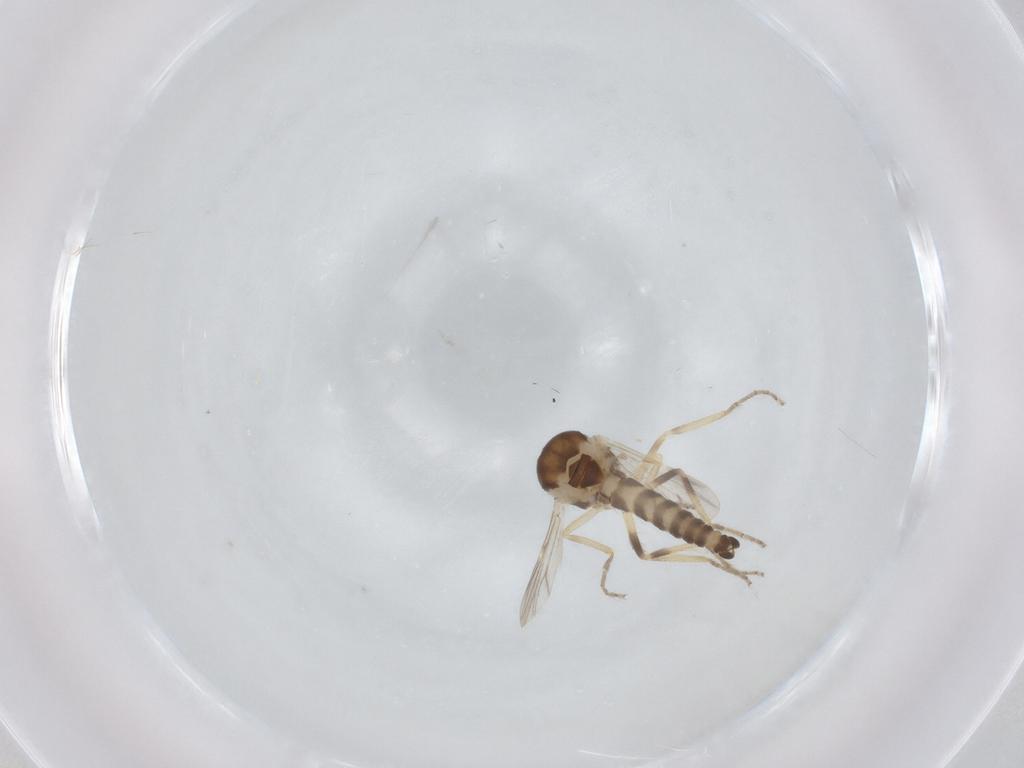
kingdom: Animalia
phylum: Arthropoda
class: Insecta
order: Diptera
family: Ceratopogonidae
